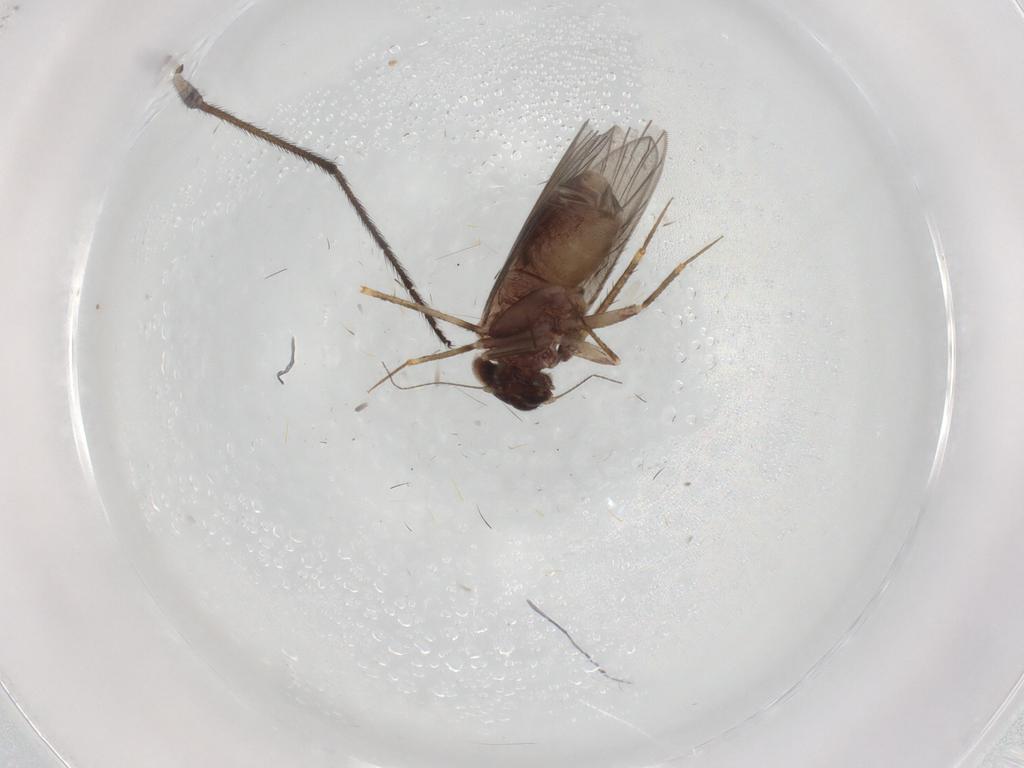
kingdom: Animalia
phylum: Arthropoda
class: Insecta
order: Psocodea
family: Lepidopsocidae
